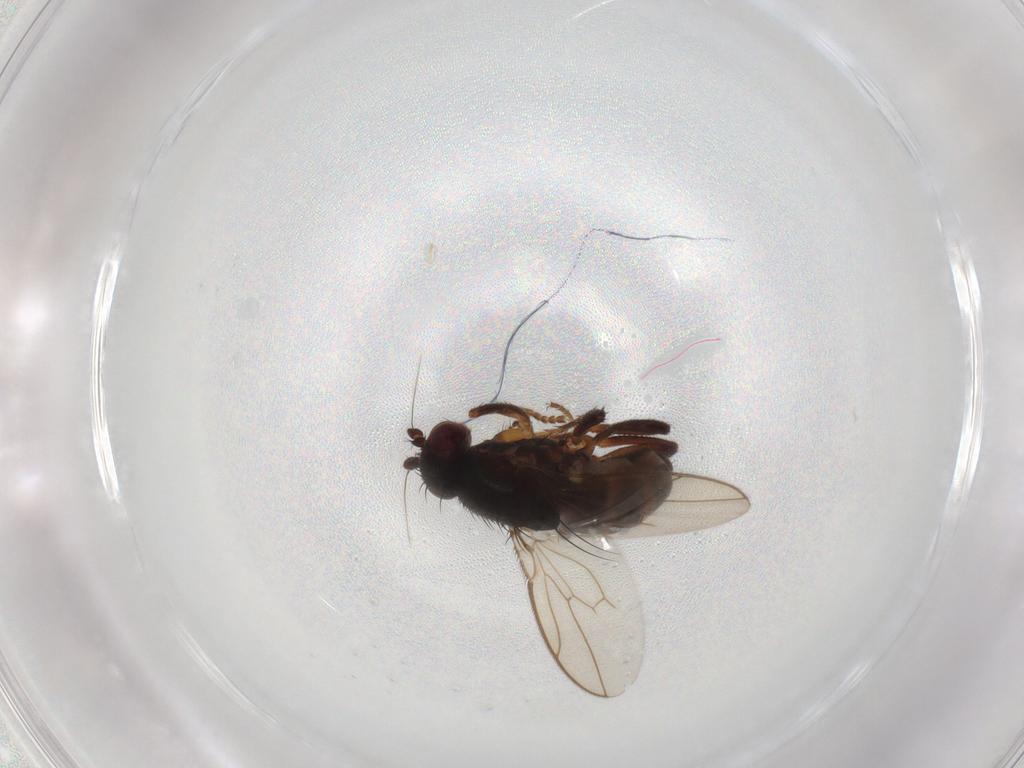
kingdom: Animalia
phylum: Arthropoda
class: Insecta
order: Diptera
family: Sphaeroceridae
